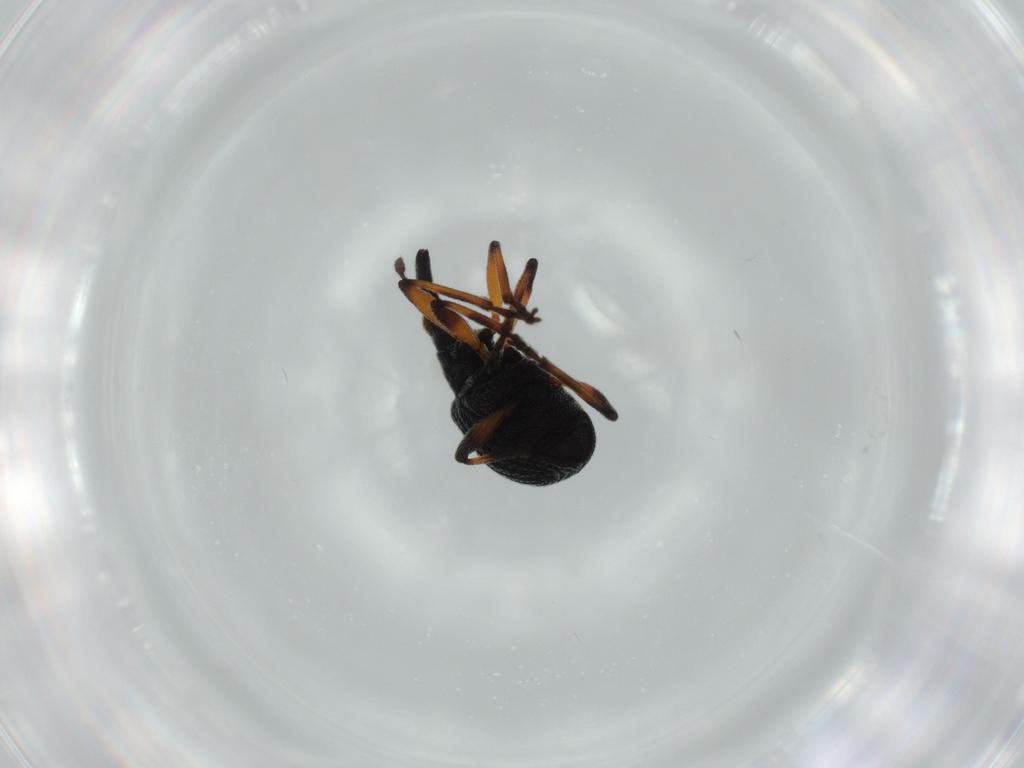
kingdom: Animalia
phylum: Arthropoda
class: Insecta
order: Coleoptera
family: Brentidae
